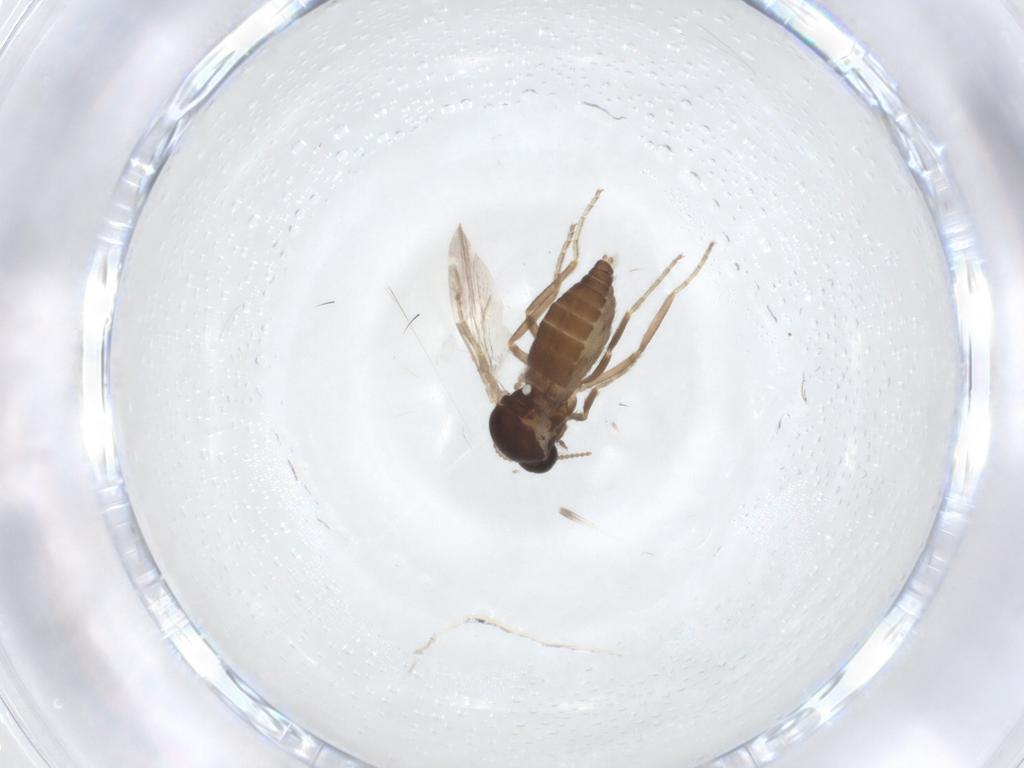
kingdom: Animalia
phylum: Arthropoda
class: Insecta
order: Diptera
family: Ceratopogonidae
